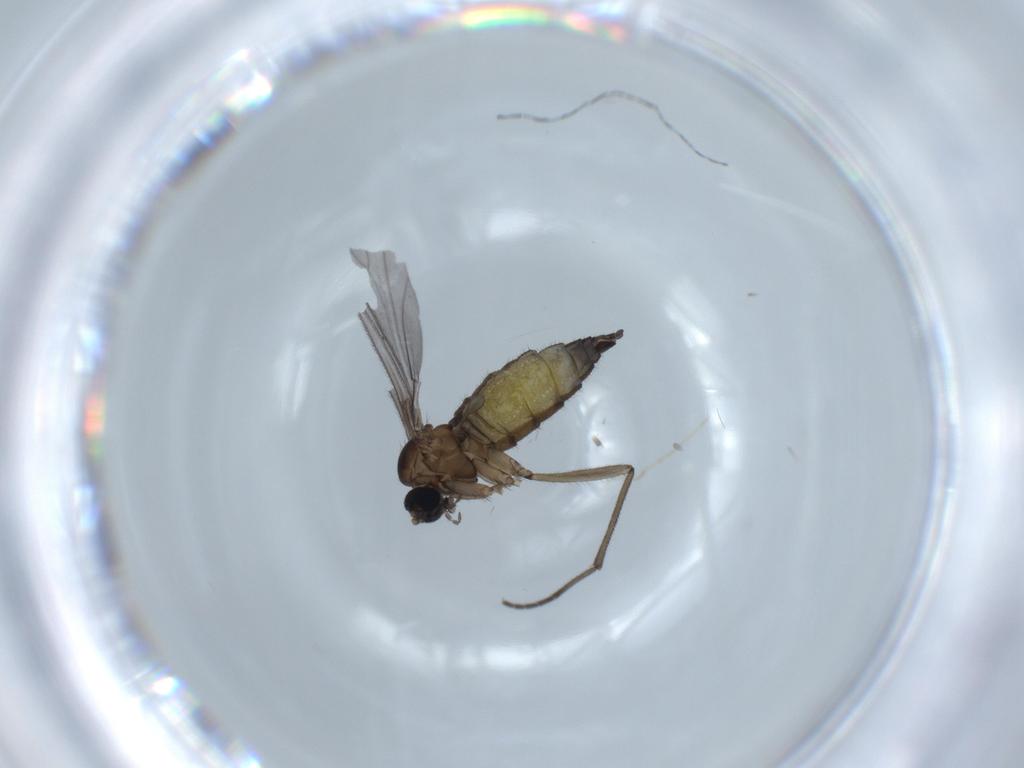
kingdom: Animalia
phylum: Arthropoda
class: Insecta
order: Diptera
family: Sciaridae
